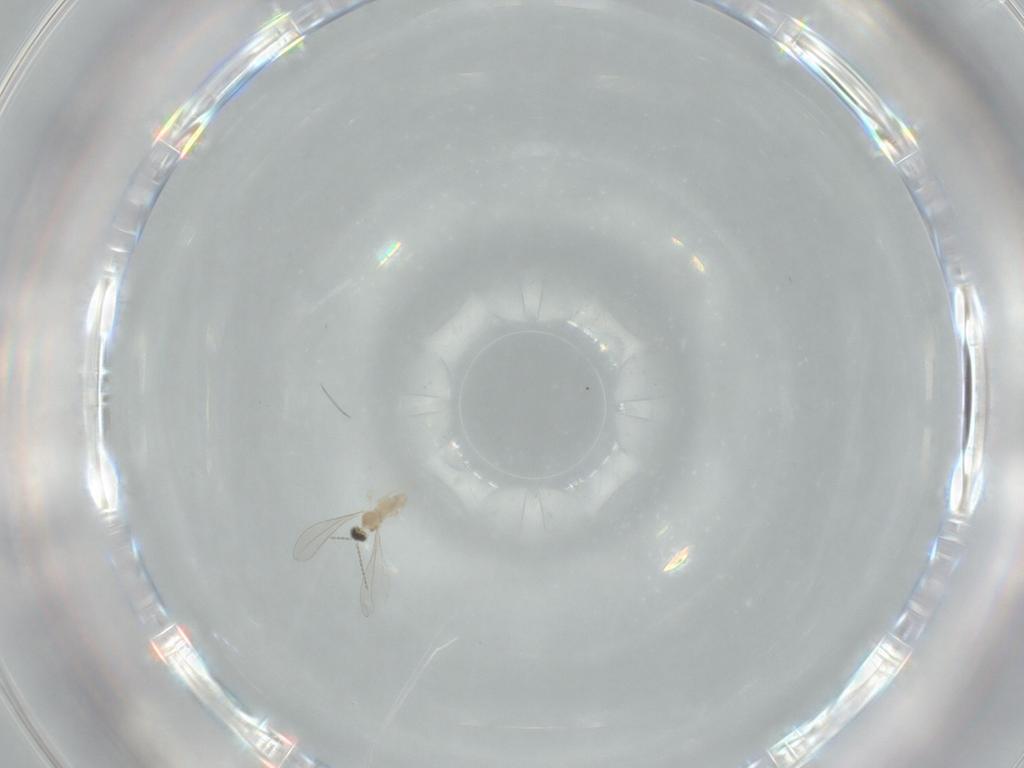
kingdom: Animalia
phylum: Arthropoda
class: Insecta
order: Diptera
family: Cecidomyiidae
